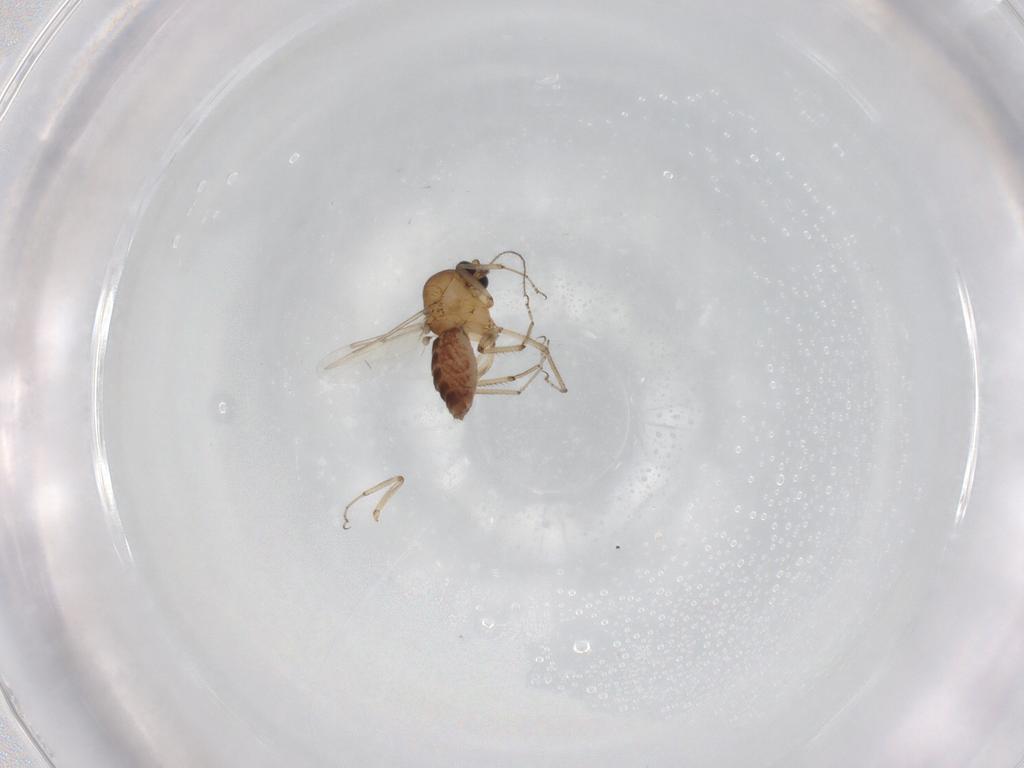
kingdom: Animalia
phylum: Arthropoda
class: Insecta
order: Diptera
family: Ceratopogonidae
